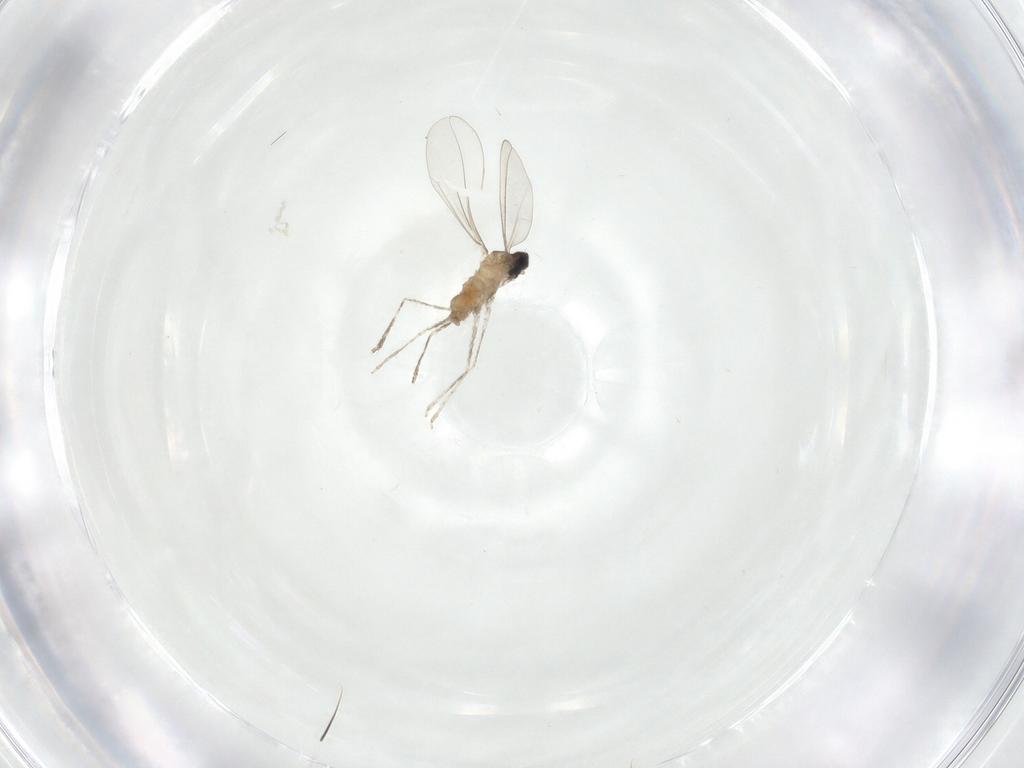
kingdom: Animalia
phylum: Arthropoda
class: Insecta
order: Diptera
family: Cecidomyiidae
